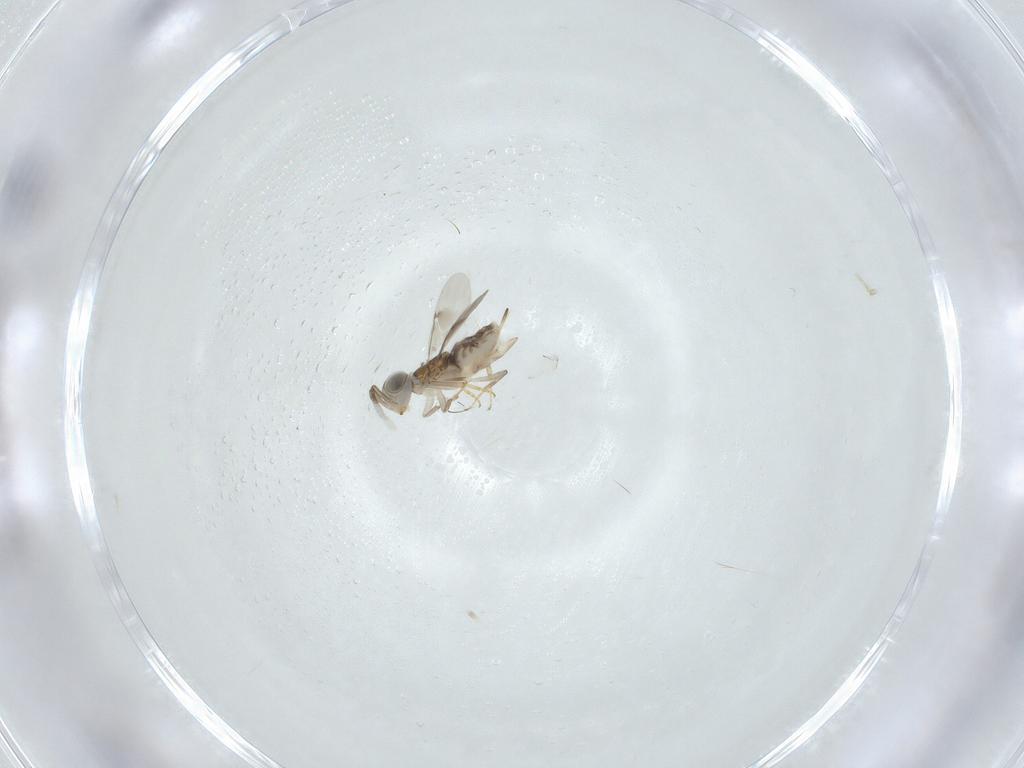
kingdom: Animalia
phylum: Arthropoda
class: Insecta
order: Hymenoptera
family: Encyrtidae
